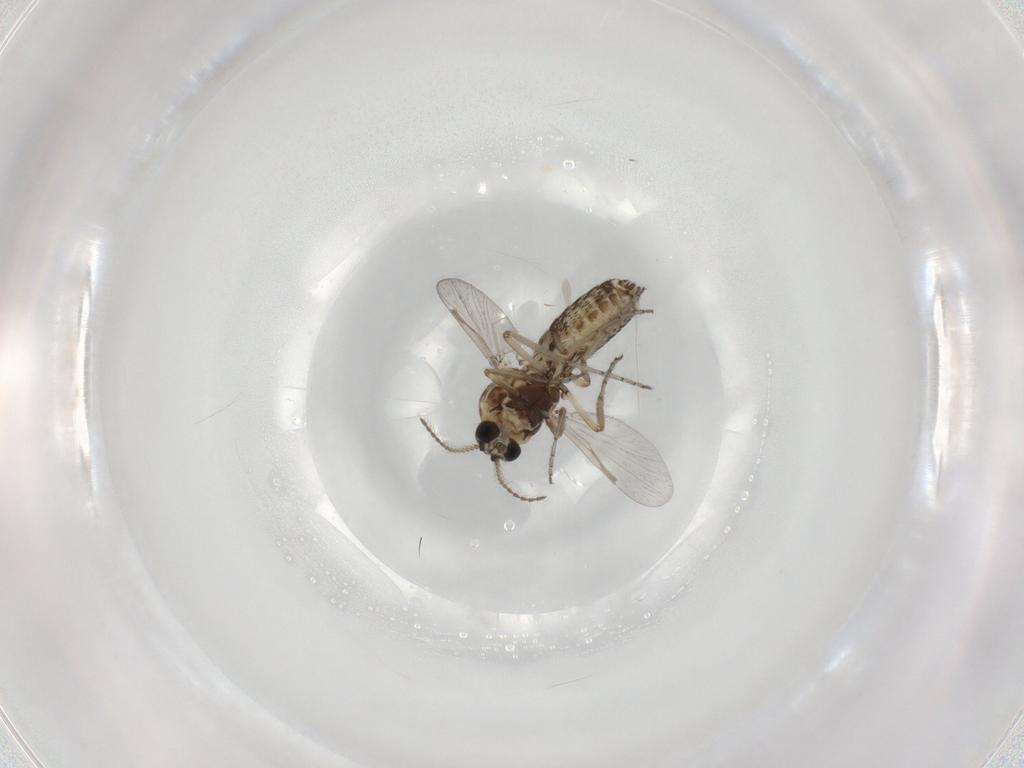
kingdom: Animalia
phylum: Arthropoda
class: Insecta
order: Diptera
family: Ceratopogonidae
